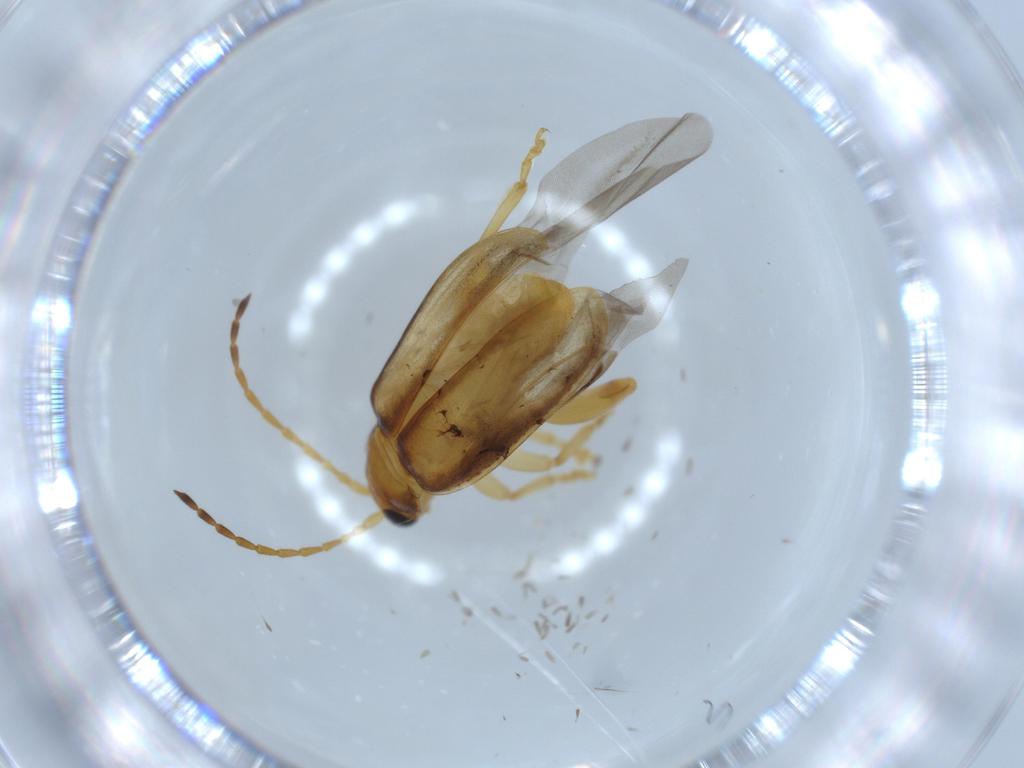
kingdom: Animalia
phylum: Arthropoda
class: Insecta
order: Coleoptera
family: Chrysomelidae
